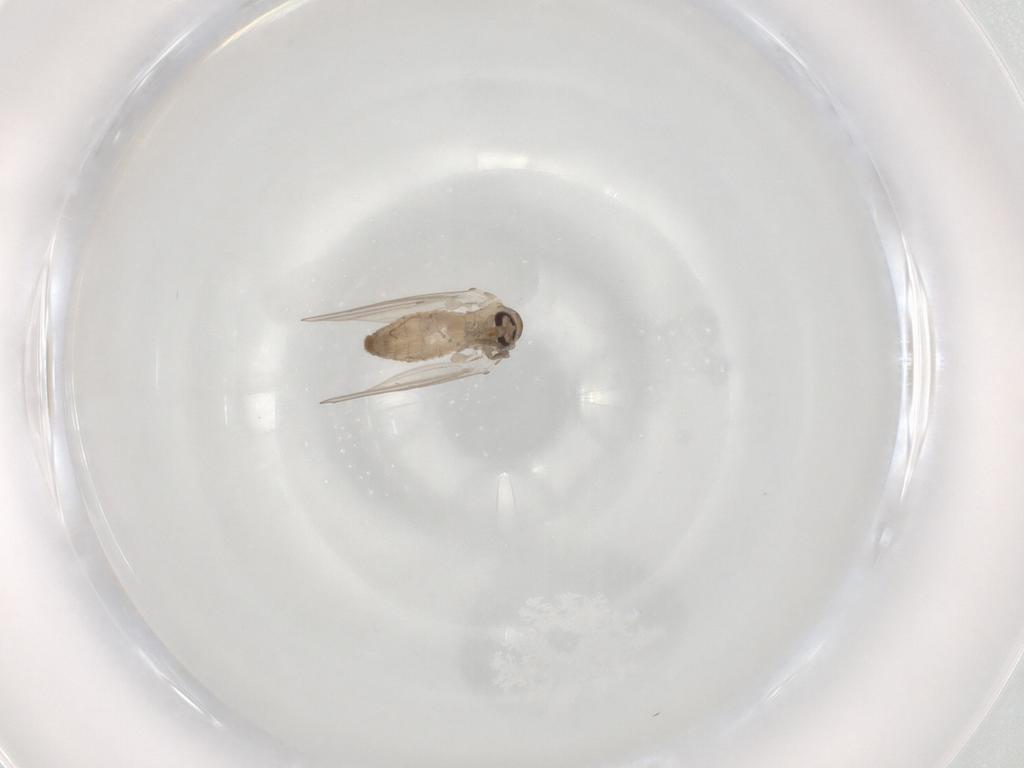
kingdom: Animalia
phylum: Arthropoda
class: Insecta
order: Diptera
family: Psychodidae
